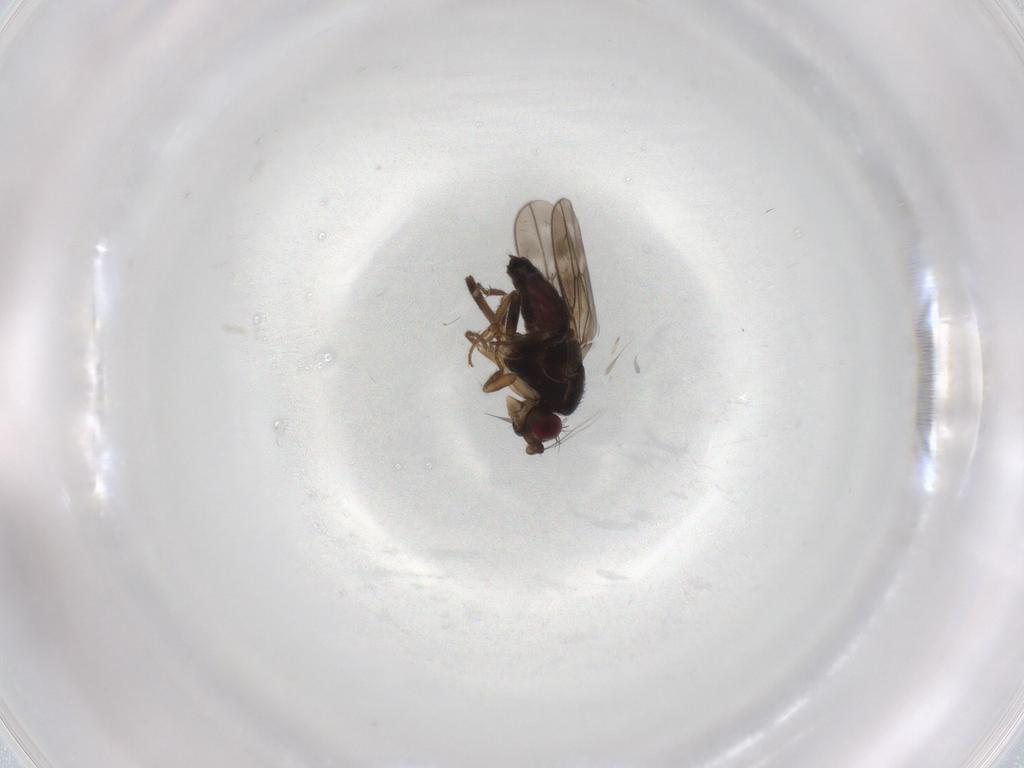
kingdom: Animalia
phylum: Arthropoda
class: Insecta
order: Diptera
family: Sphaeroceridae
